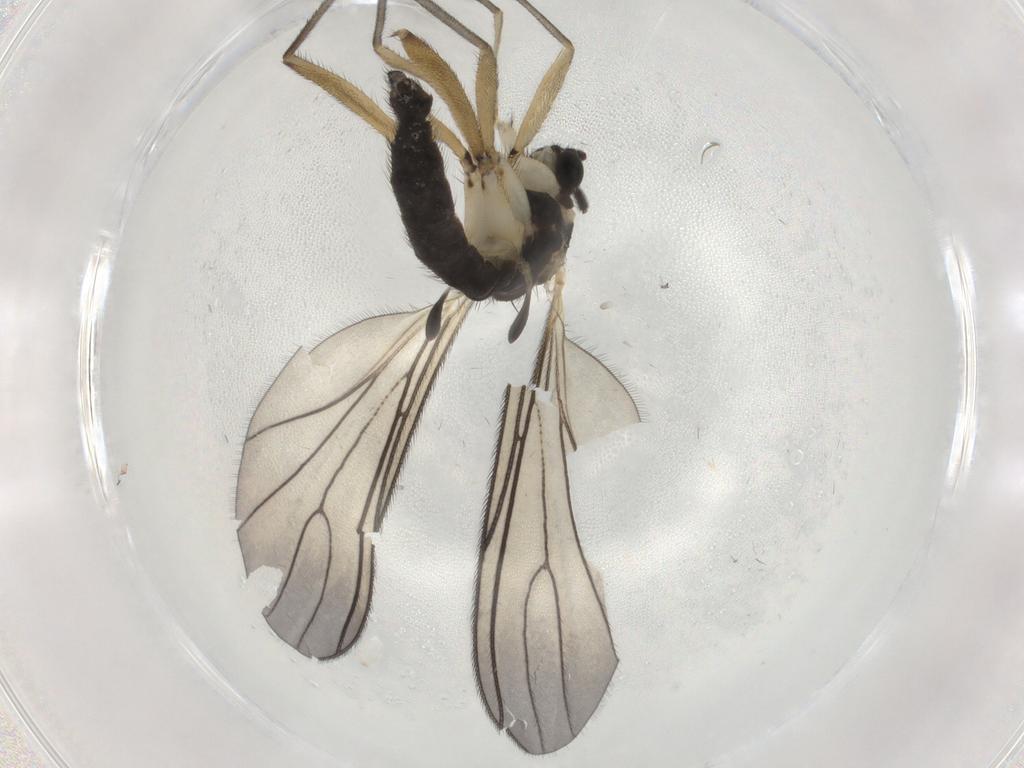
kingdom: Animalia
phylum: Arthropoda
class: Insecta
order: Diptera
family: Sciaridae
